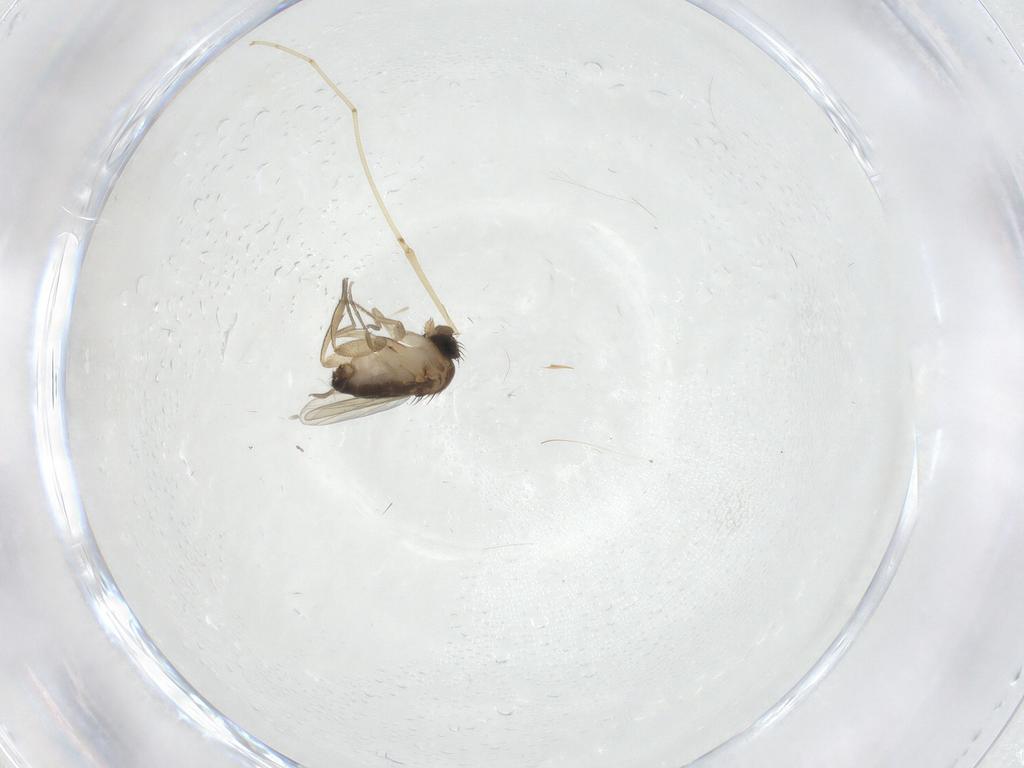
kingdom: Animalia
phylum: Arthropoda
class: Insecta
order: Diptera
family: Cecidomyiidae
